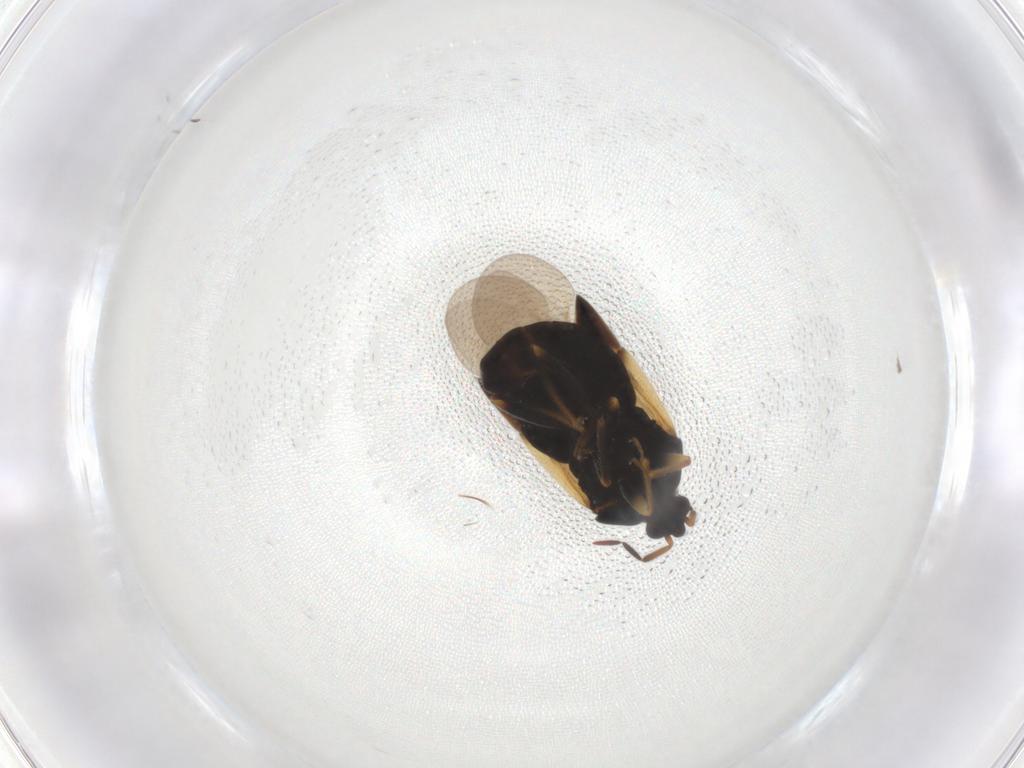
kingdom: Animalia
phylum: Arthropoda
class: Insecta
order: Hemiptera
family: Anthocoridae
